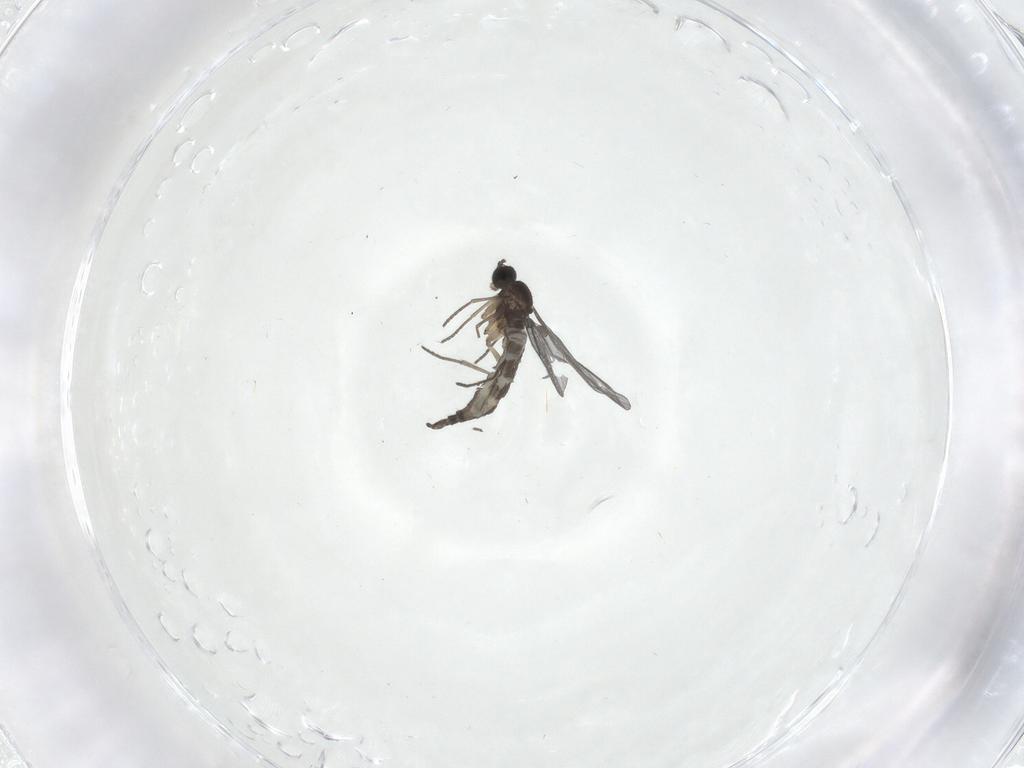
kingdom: Animalia
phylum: Arthropoda
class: Insecta
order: Diptera
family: Sciaridae
